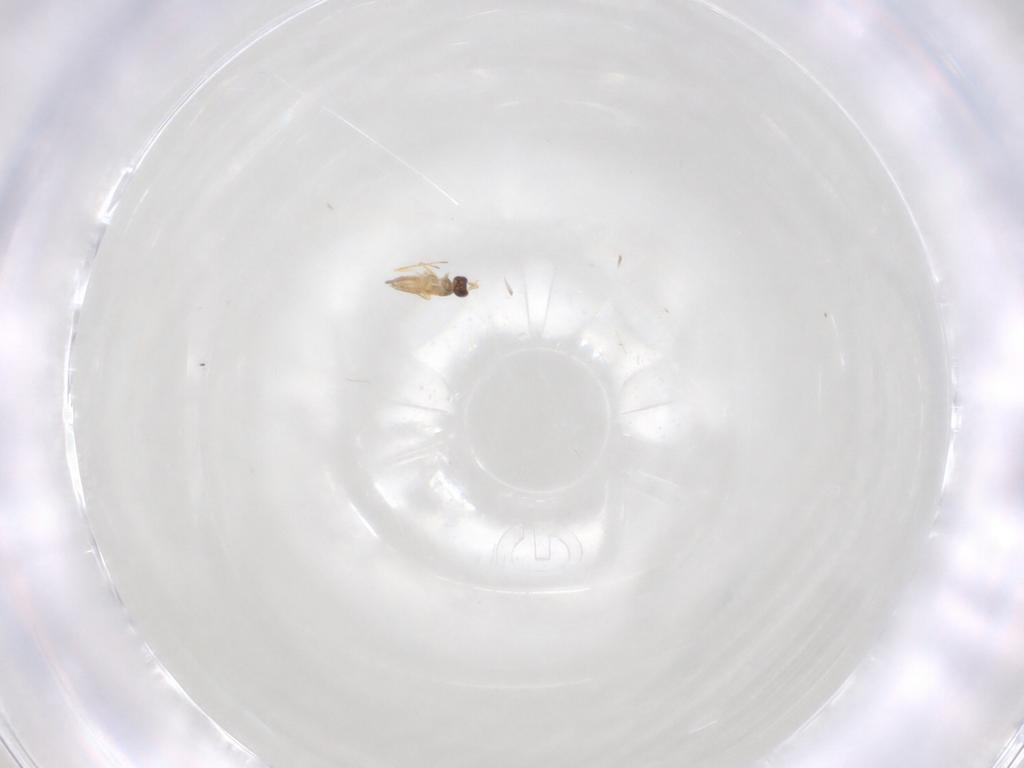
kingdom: Animalia
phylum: Arthropoda
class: Insecta
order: Hymenoptera
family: Mymaridae
